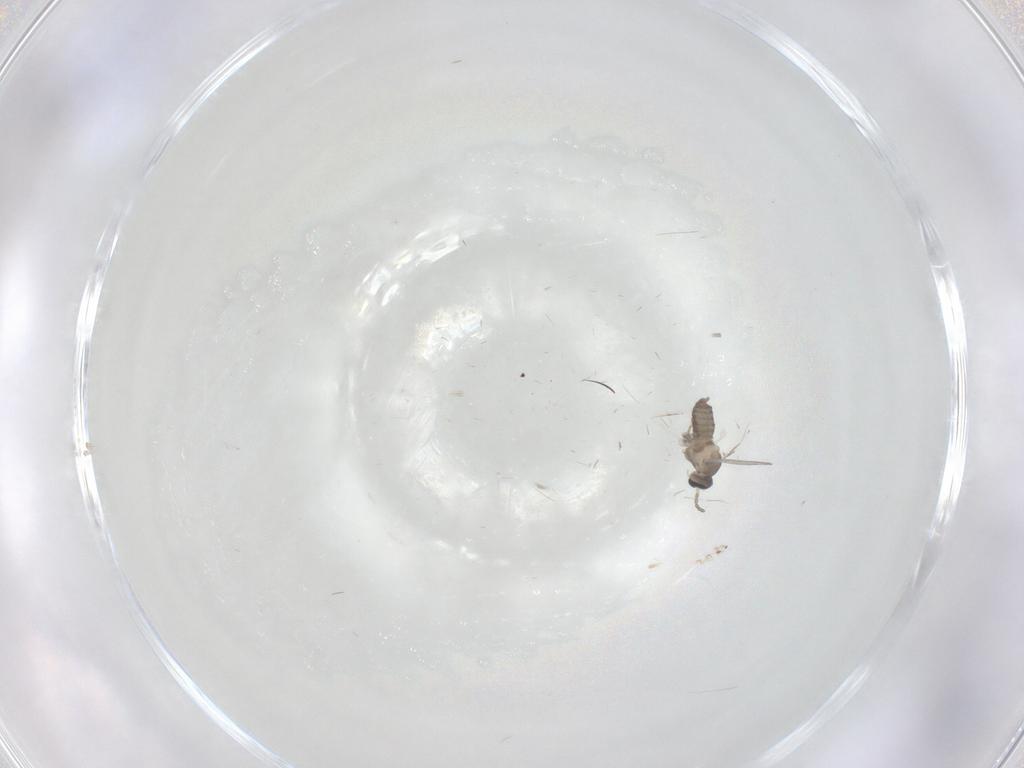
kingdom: Animalia
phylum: Arthropoda
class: Insecta
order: Diptera
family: Cecidomyiidae
